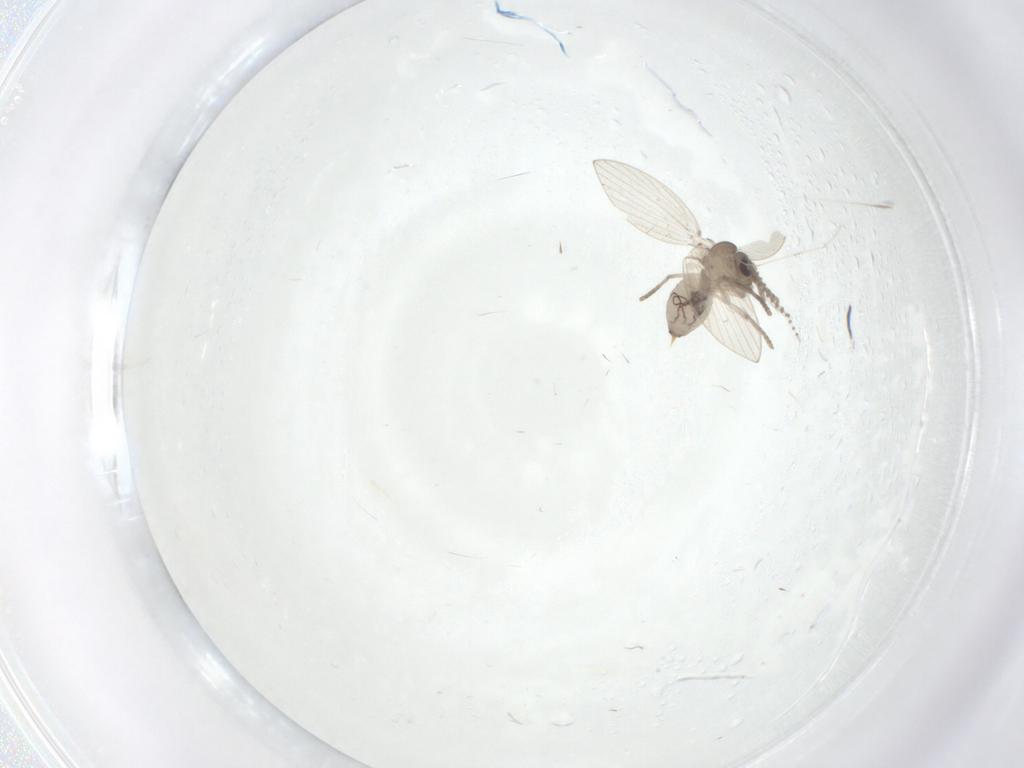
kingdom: Animalia
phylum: Arthropoda
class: Insecta
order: Diptera
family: Cecidomyiidae
